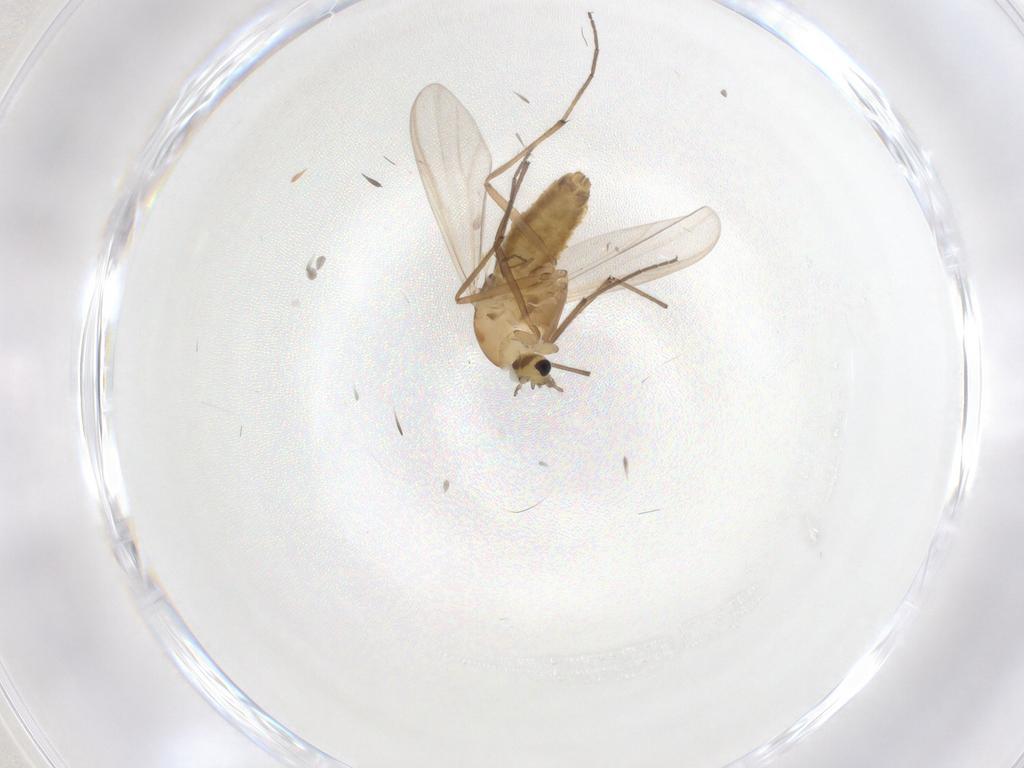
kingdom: Animalia
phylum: Arthropoda
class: Insecta
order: Diptera
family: Chironomidae
